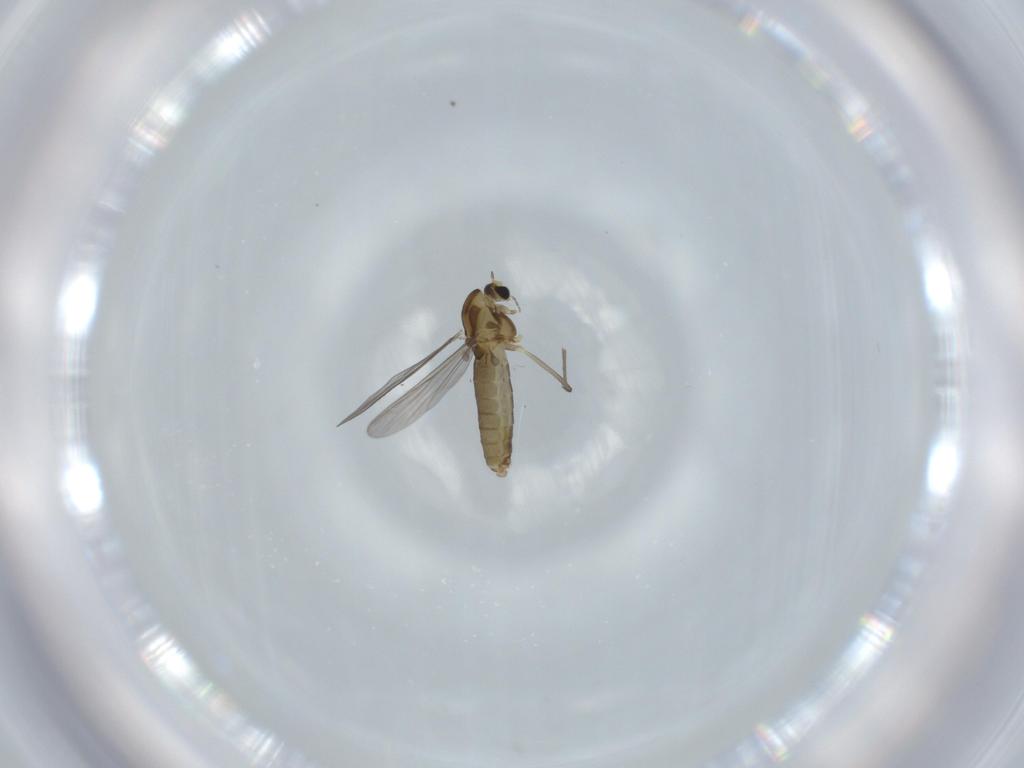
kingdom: Animalia
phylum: Arthropoda
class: Insecta
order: Diptera
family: Chironomidae
